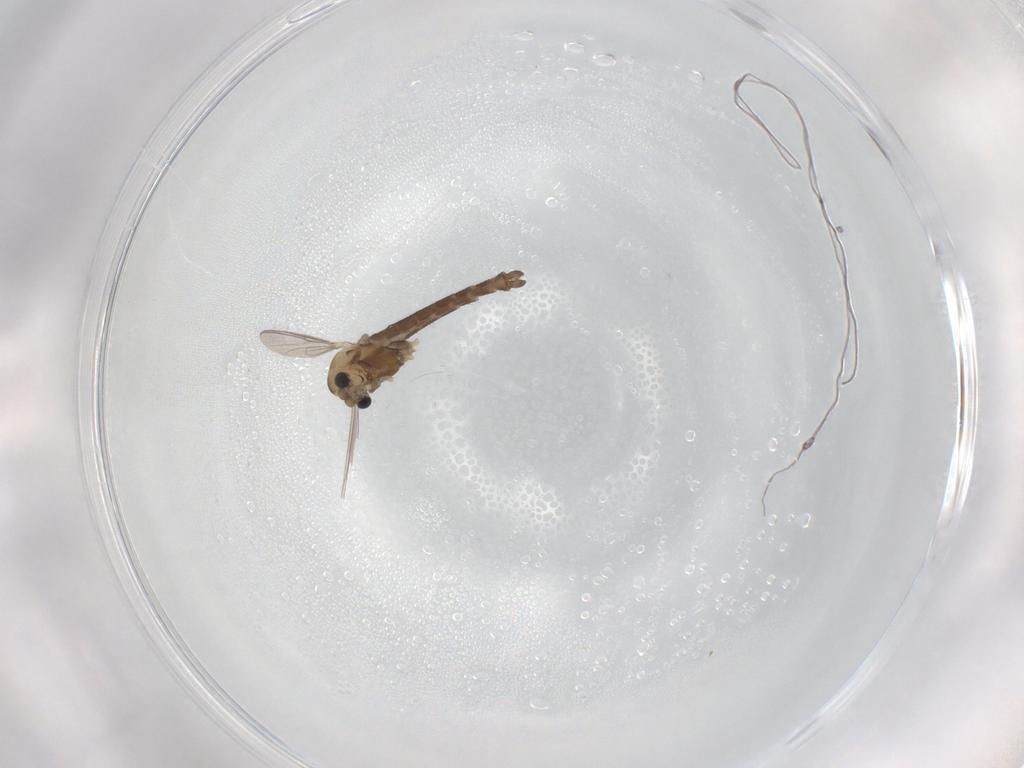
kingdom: Animalia
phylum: Arthropoda
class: Insecta
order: Diptera
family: Chironomidae
